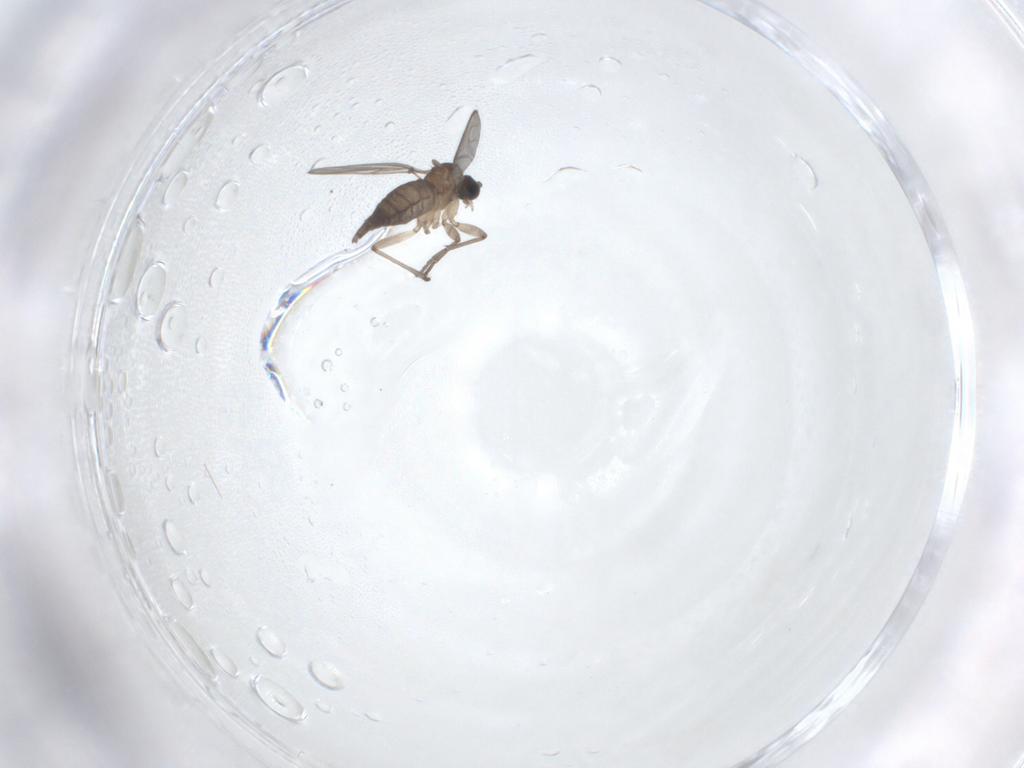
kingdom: Animalia
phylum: Arthropoda
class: Insecta
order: Diptera
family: Sciaridae
